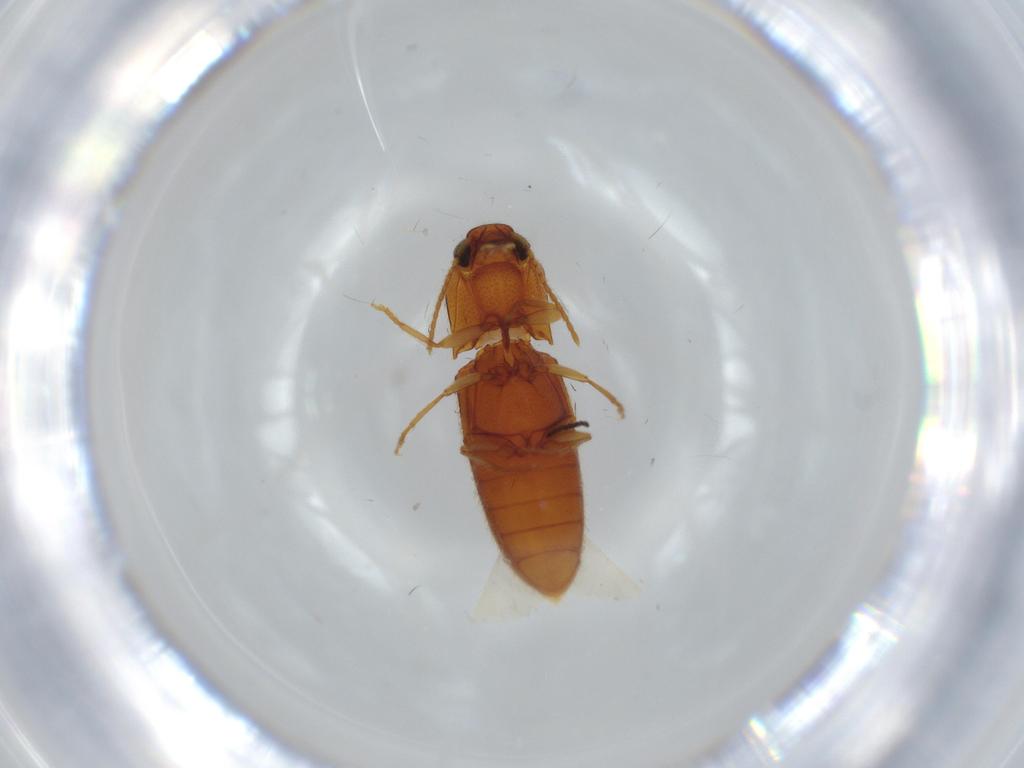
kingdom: Animalia
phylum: Arthropoda
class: Insecta
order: Coleoptera
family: Elateridae
